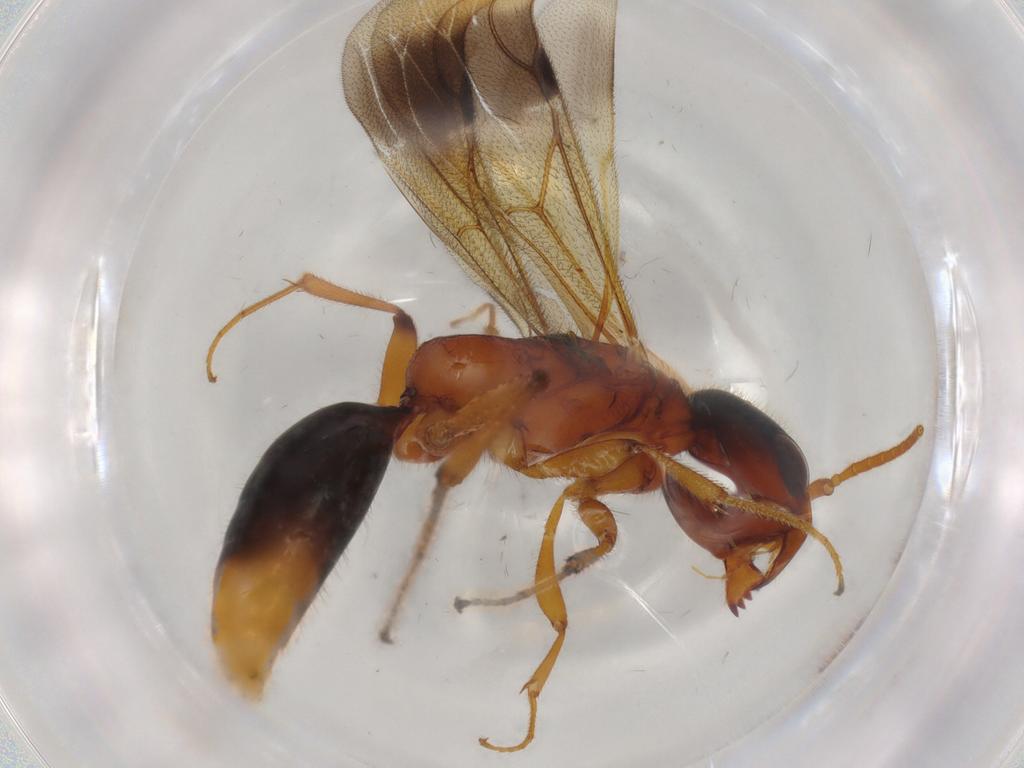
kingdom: Animalia
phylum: Arthropoda
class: Insecta
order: Hymenoptera
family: Bethylidae
